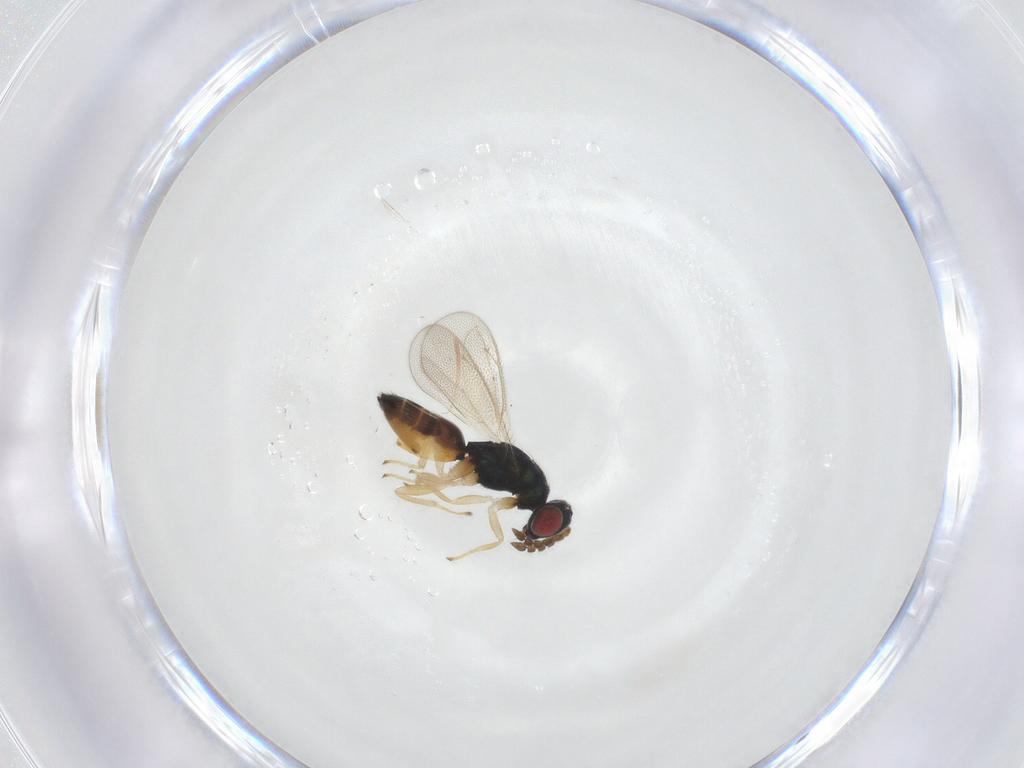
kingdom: Animalia
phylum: Arthropoda
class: Insecta
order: Hymenoptera
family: Eulophidae
